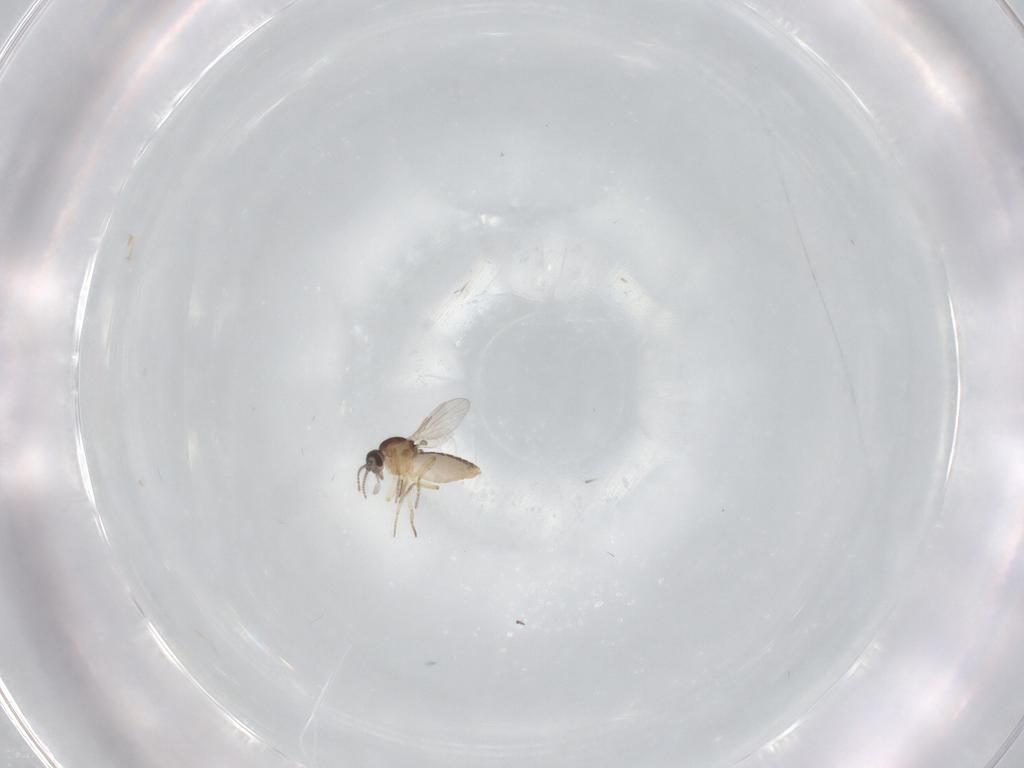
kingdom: Animalia
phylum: Arthropoda
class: Insecta
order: Diptera
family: Ceratopogonidae
